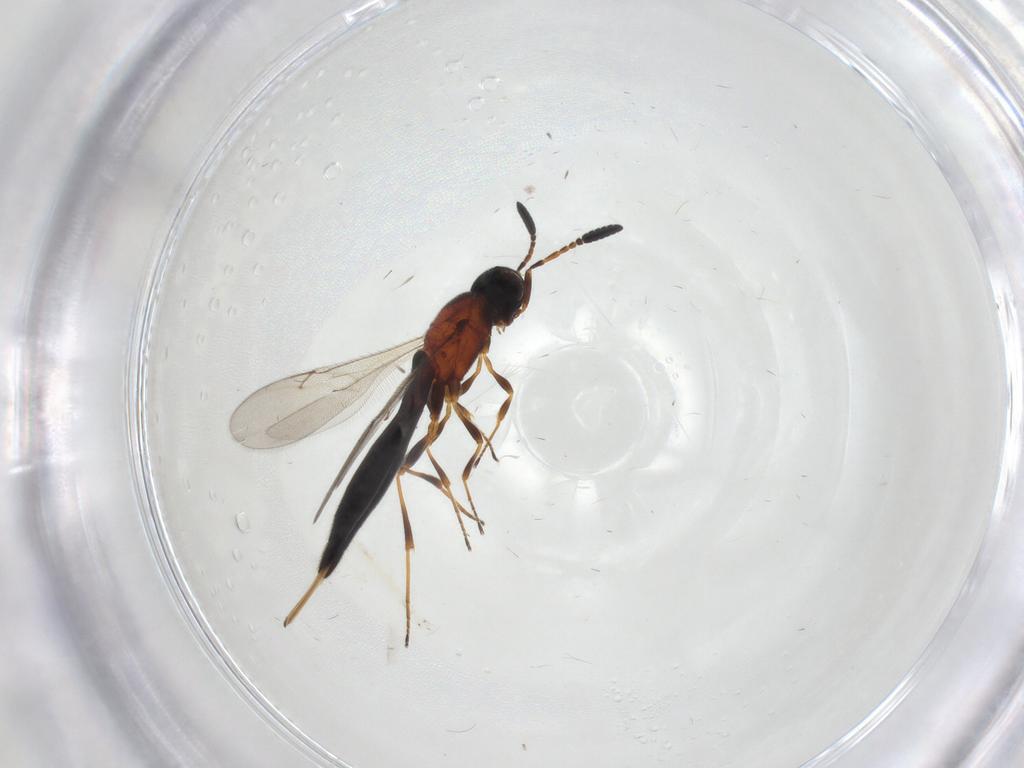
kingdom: Animalia
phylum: Arthropoda
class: Insecta
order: Hymenoptera
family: Scelionidae
